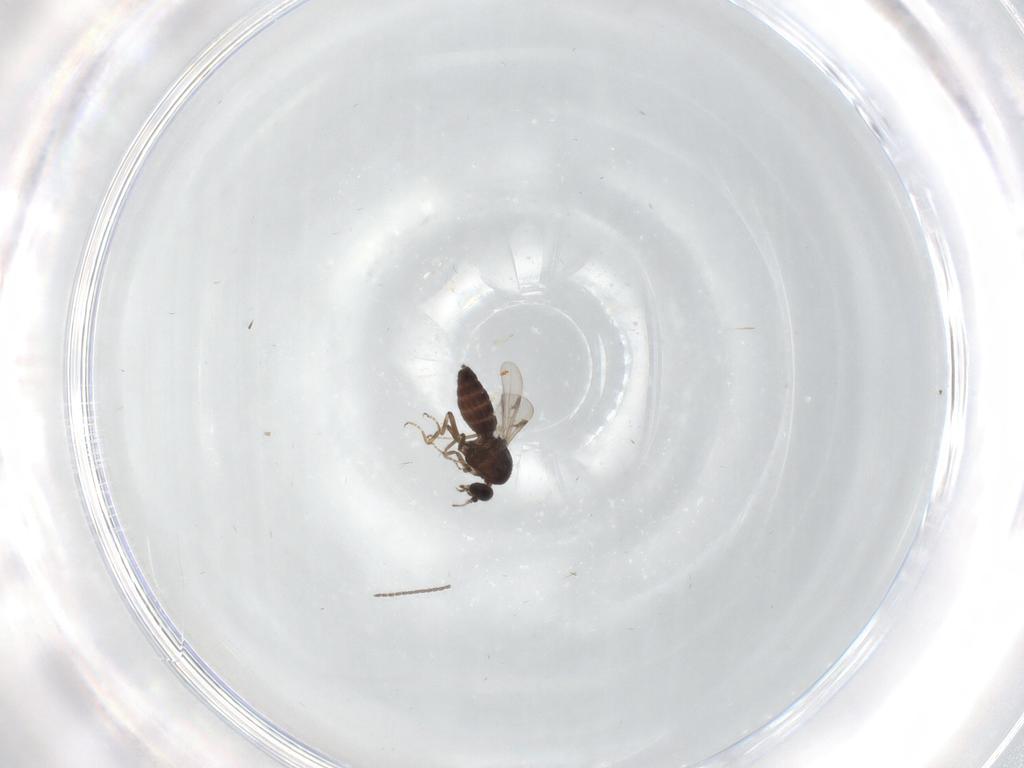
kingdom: Animalia
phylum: Arthropoda
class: Insecta
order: Diptera
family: Ceratopogonidae
